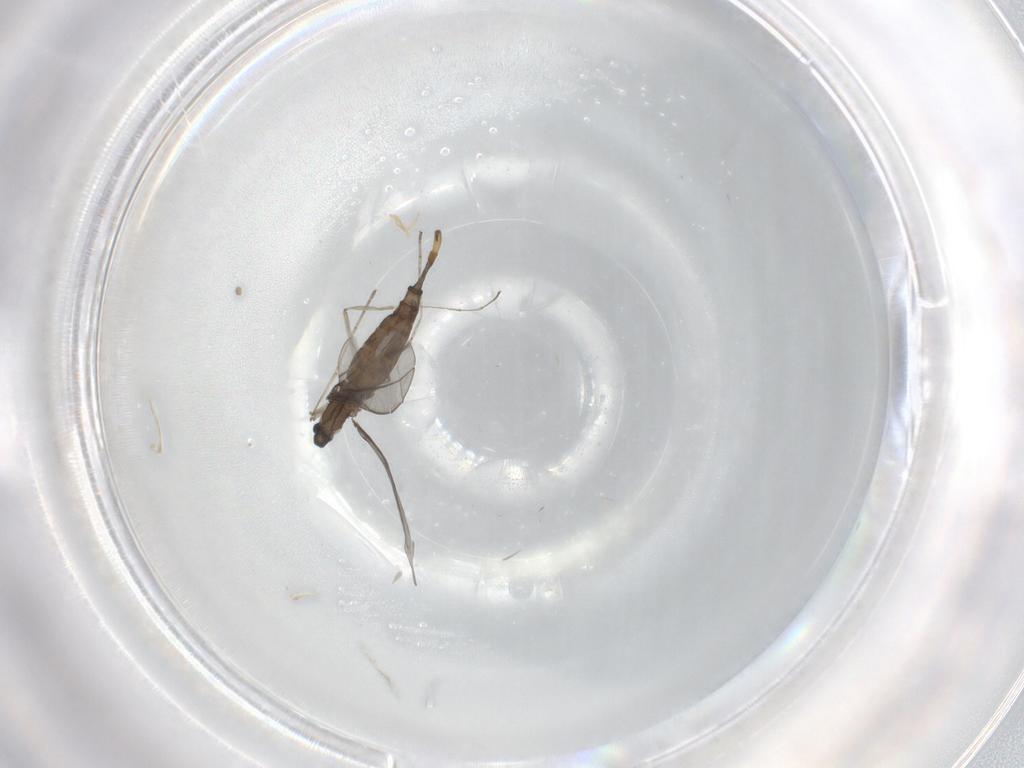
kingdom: Animalia
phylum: Arthropoda
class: Insecta
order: Diptera
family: Cecidomyiidae
